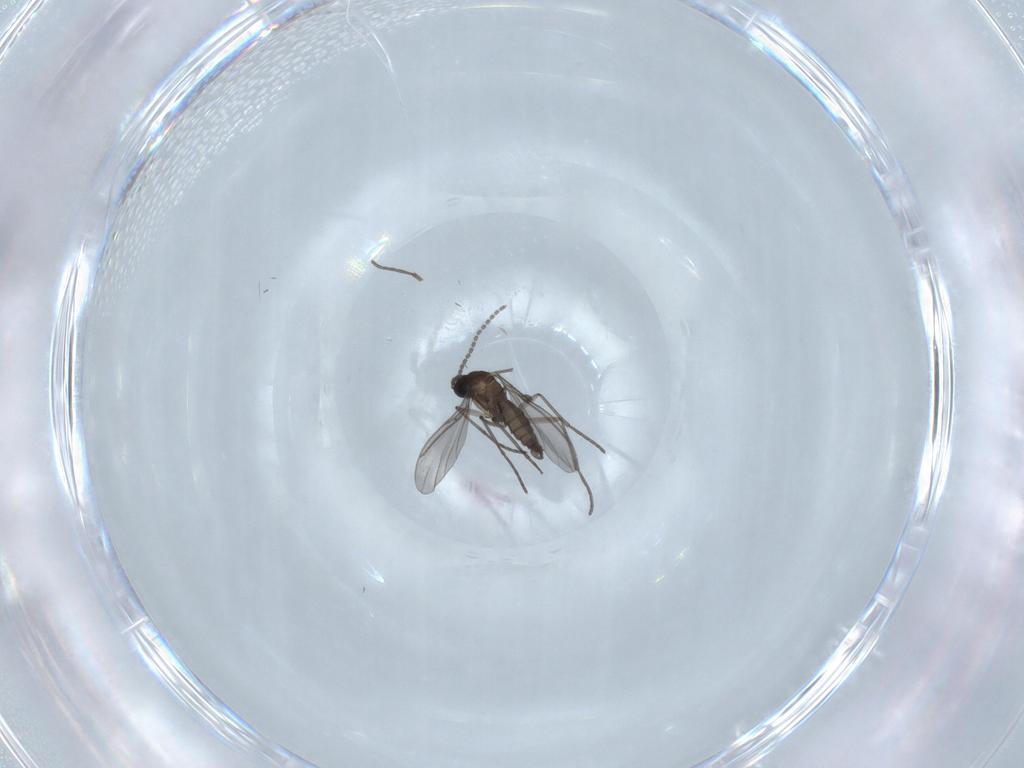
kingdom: Animalia
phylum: Arthropoda
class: Insecta
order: Diptera
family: Sciaridae
